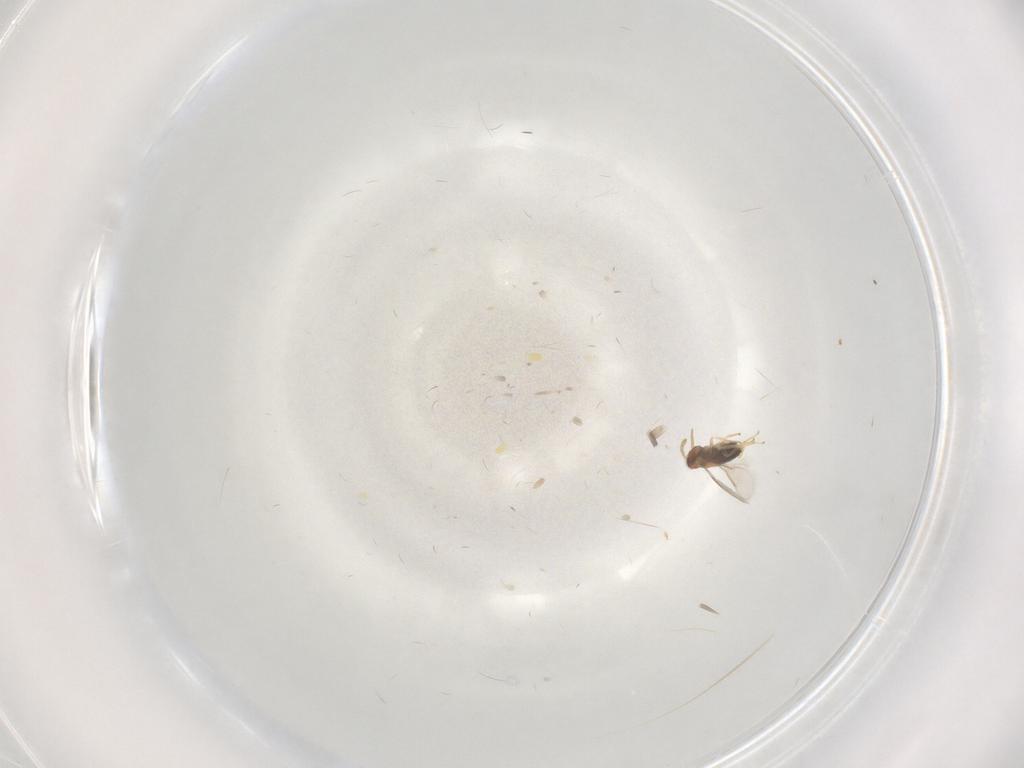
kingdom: Animalia
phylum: Arthropoda
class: Insecta
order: Hymenoptera
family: Aphelinidae
